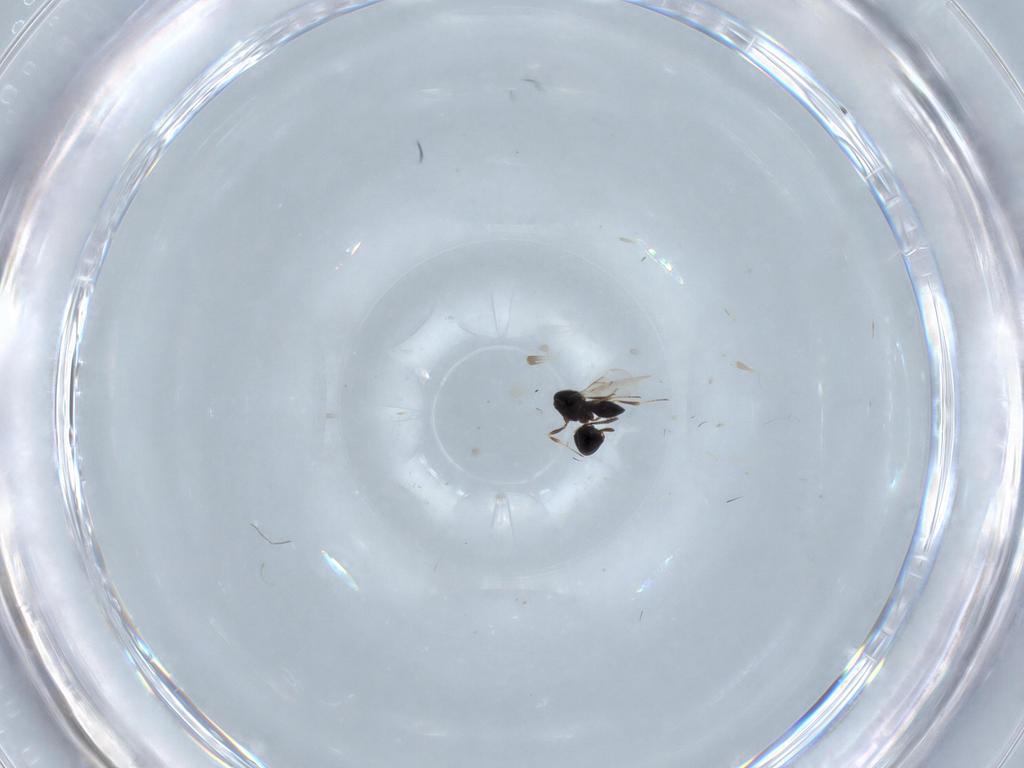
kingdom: Animalia
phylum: Arthropoda
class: Insecta
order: Hymenoptera
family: Scelionidae
